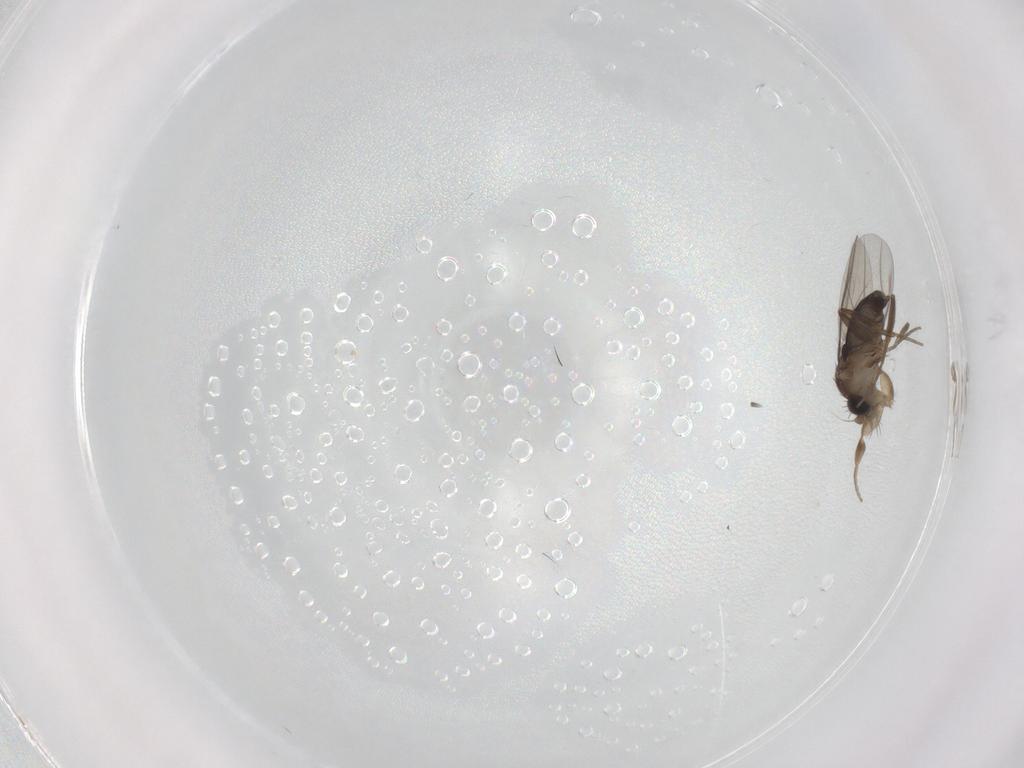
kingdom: Animalia
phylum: Arthropoda
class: Insecta
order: Diptera
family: Phoridae
